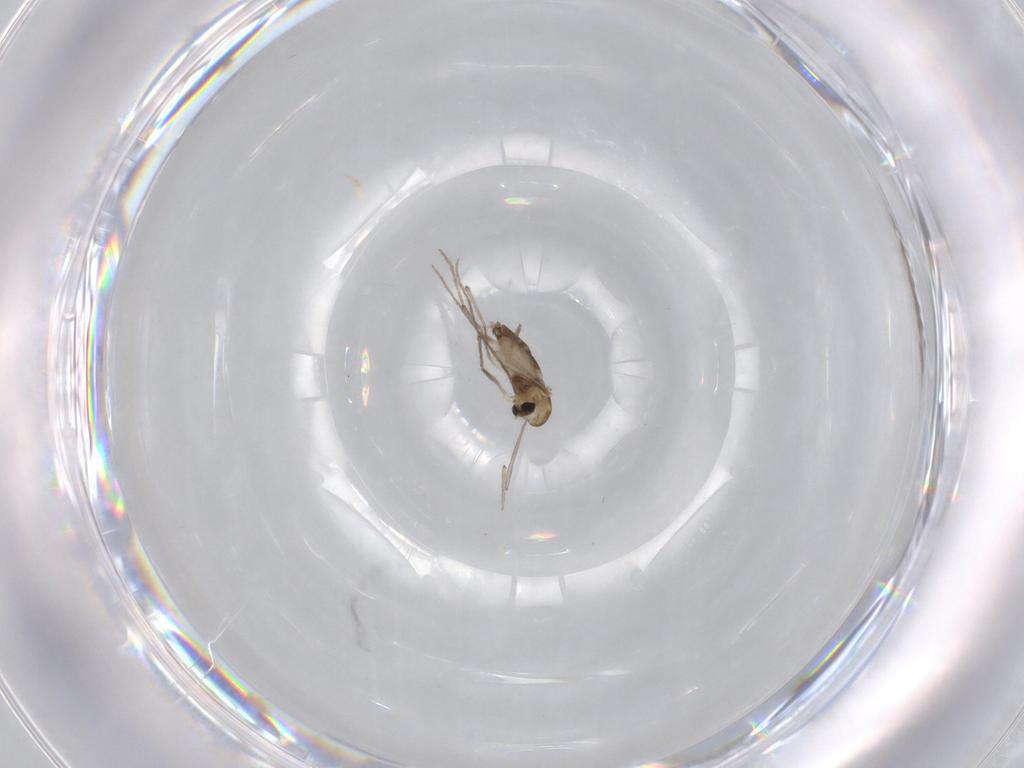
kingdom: Animalia
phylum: Arthropoda
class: Insecta
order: Diptera
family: Chironomidae
